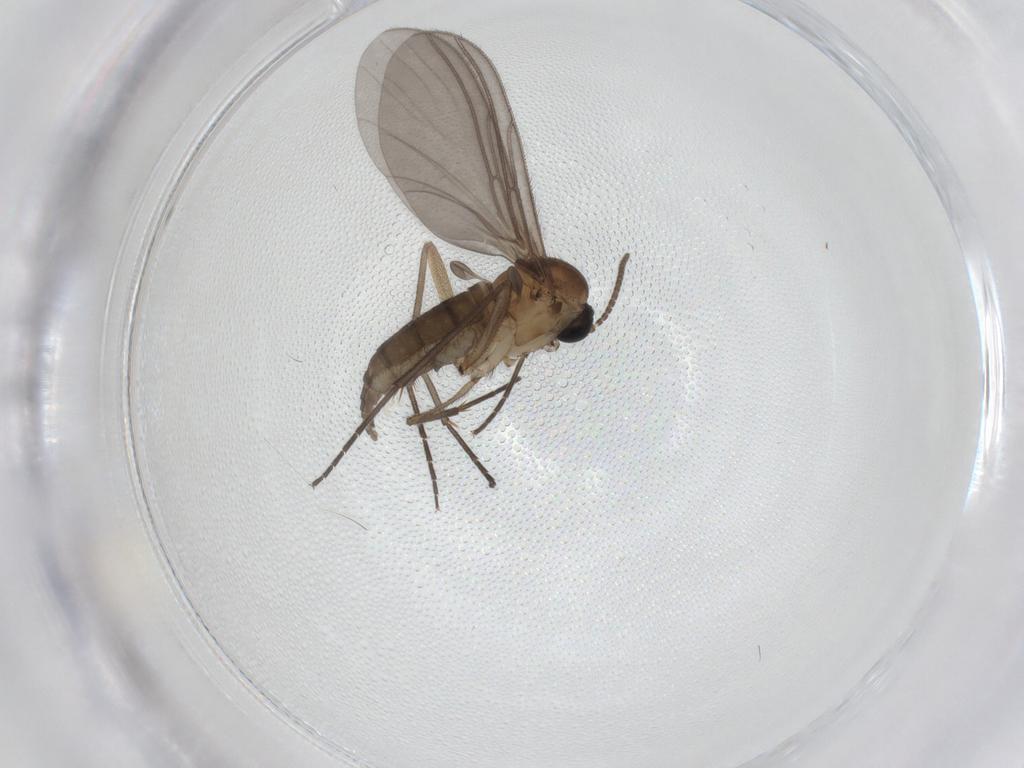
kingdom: Animalia
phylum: Arthropoda
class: Insecta
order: Diptera
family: Sciaridae
